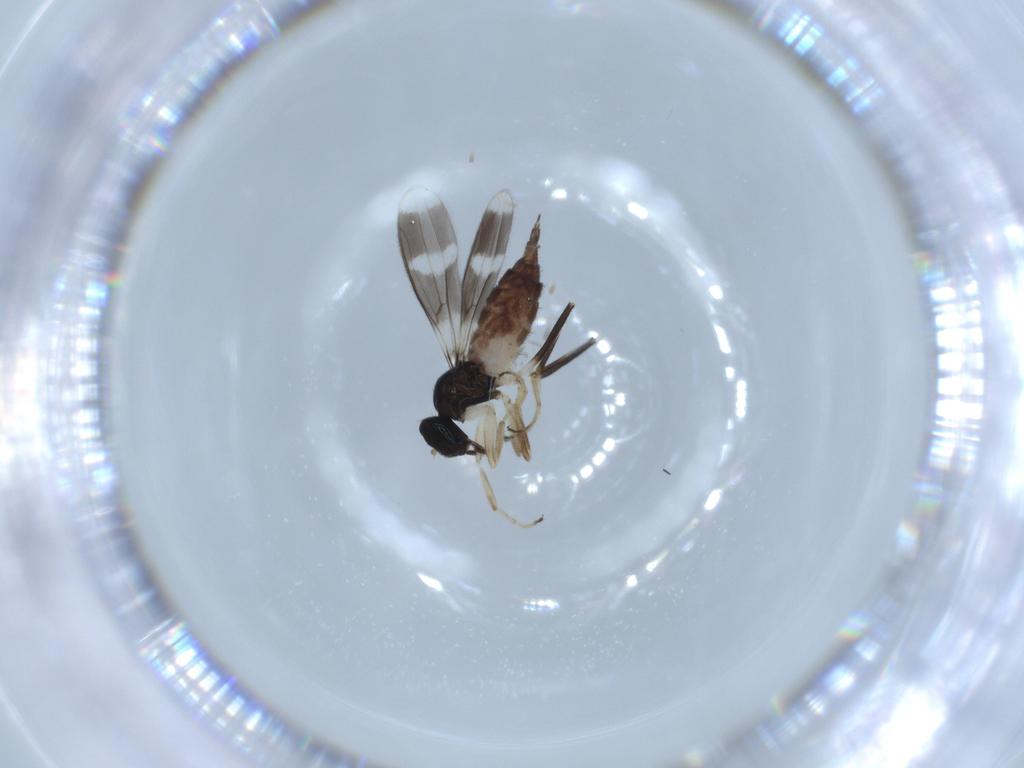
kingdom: Animalia
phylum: Arthropoda
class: Insecta
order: Diptera
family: Hybotidae
